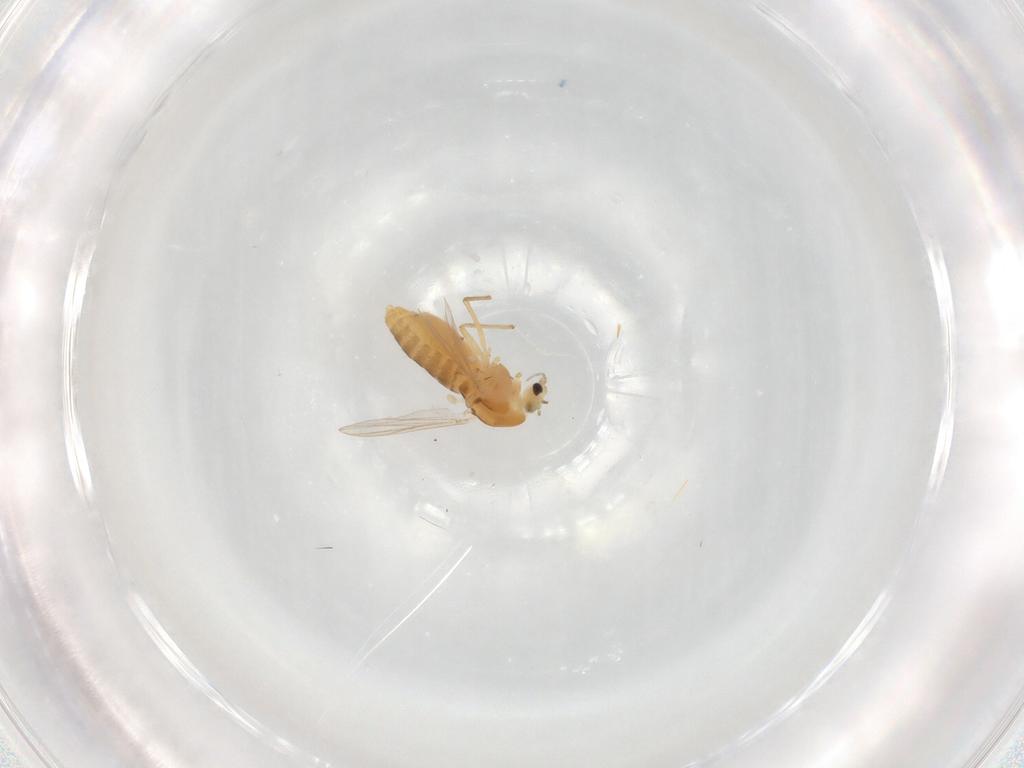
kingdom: Animalia
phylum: Arthropoda
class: Insecta
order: Diptera
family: Chironomidae
